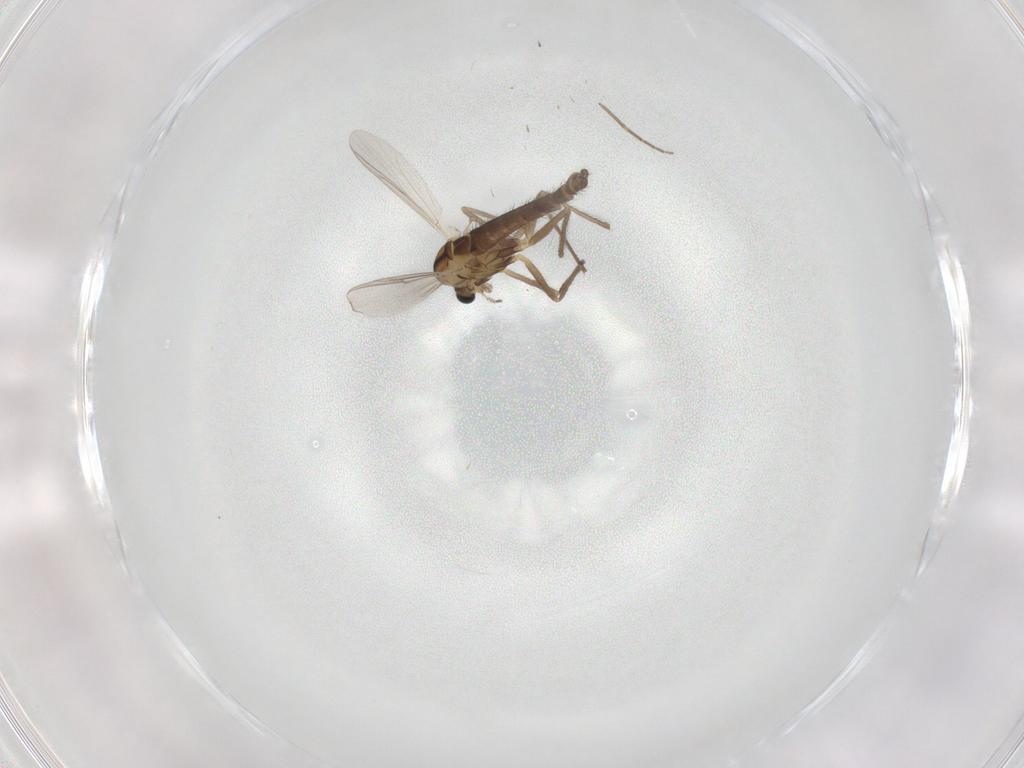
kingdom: Animalia
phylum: Arthropoda
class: Insecta
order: Diptera
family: Chironomidae
